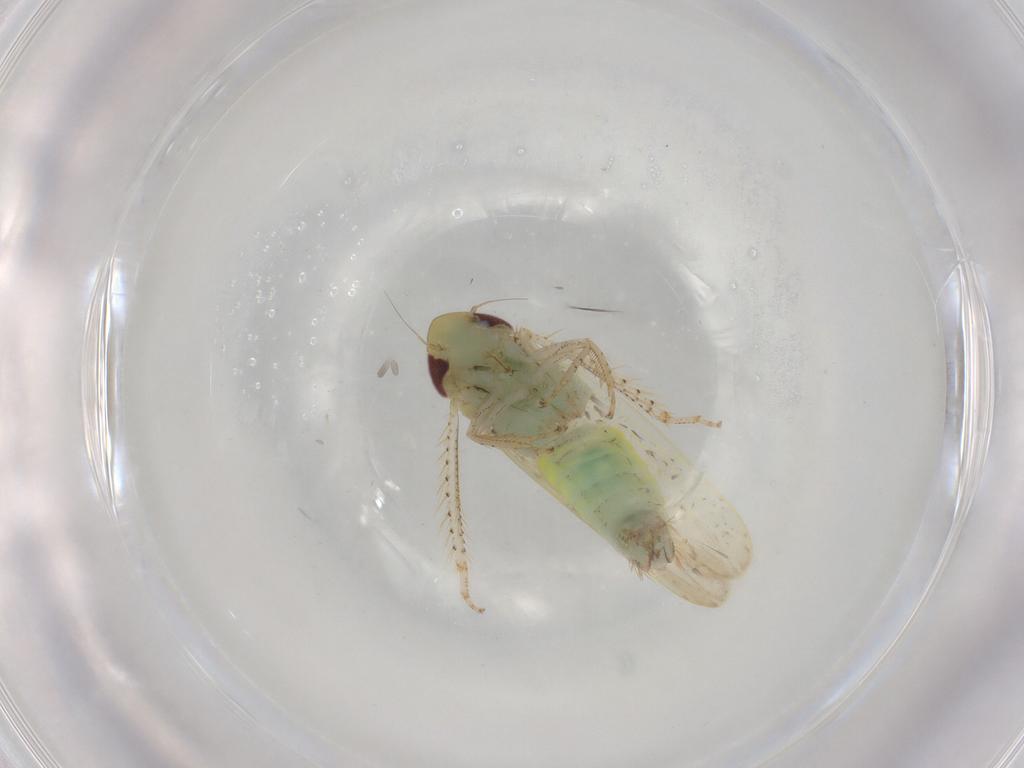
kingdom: Animalia
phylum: Arthropoda
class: Insecta
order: Hemiptera
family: Cicadellidae
